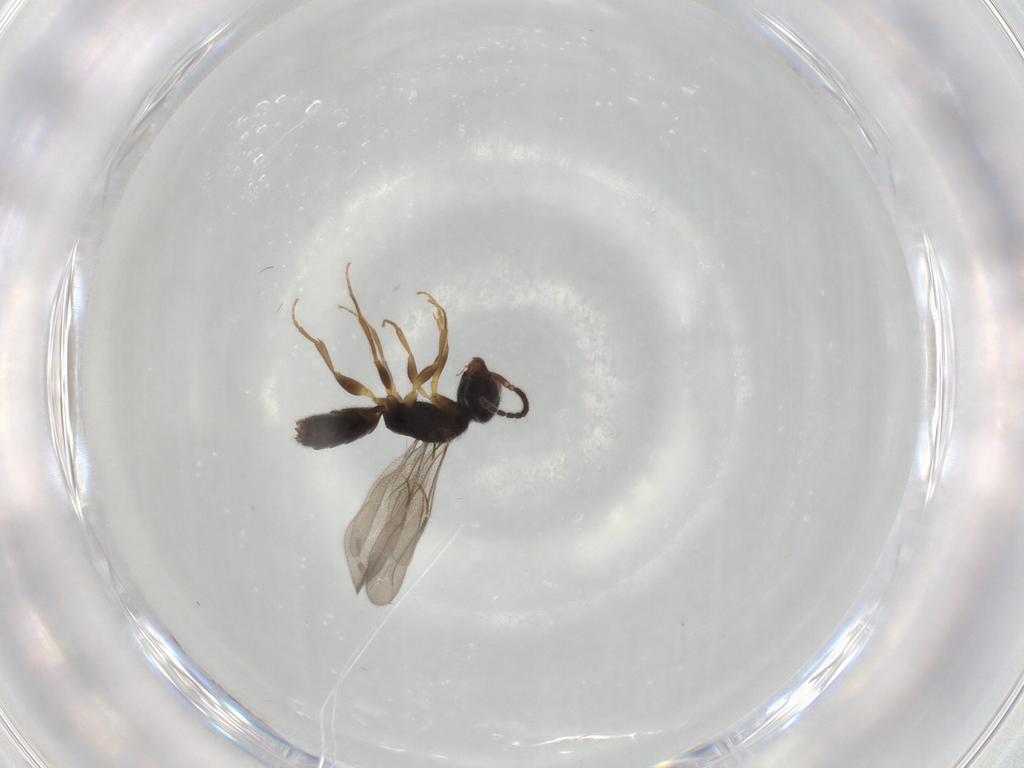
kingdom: Animalia
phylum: Arthropoda
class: Insecta
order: Hymenoptera
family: Bethylidae
